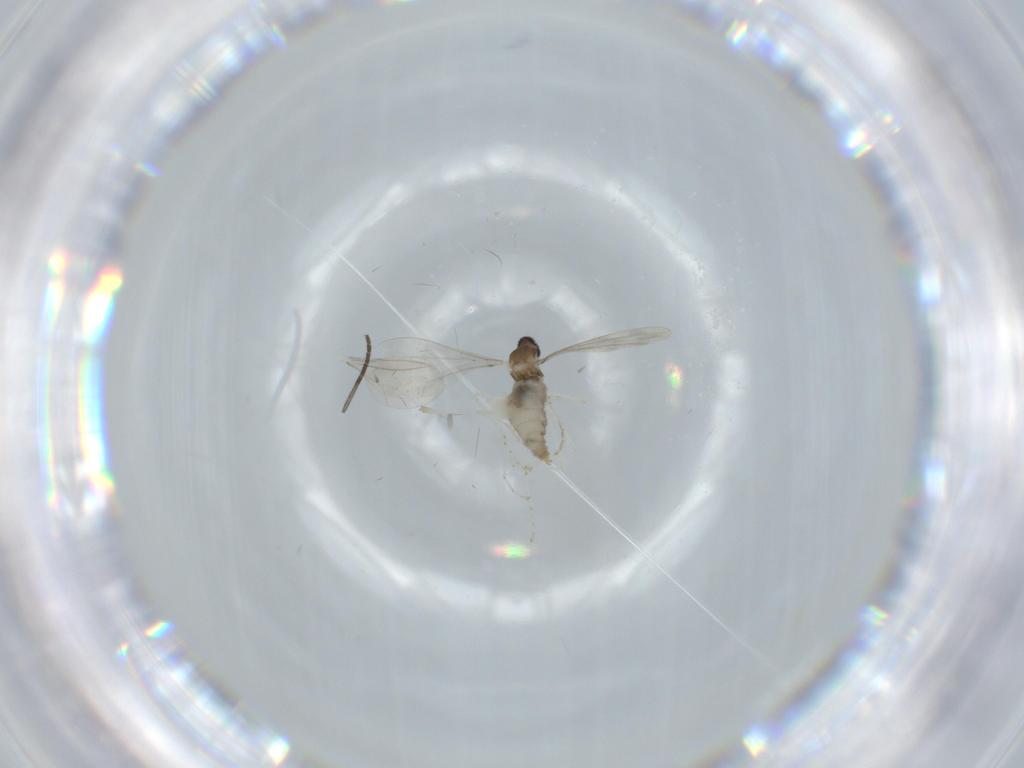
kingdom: Animalia
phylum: Arthropoda
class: Insecta
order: Diptera
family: Cecidomyiidae
